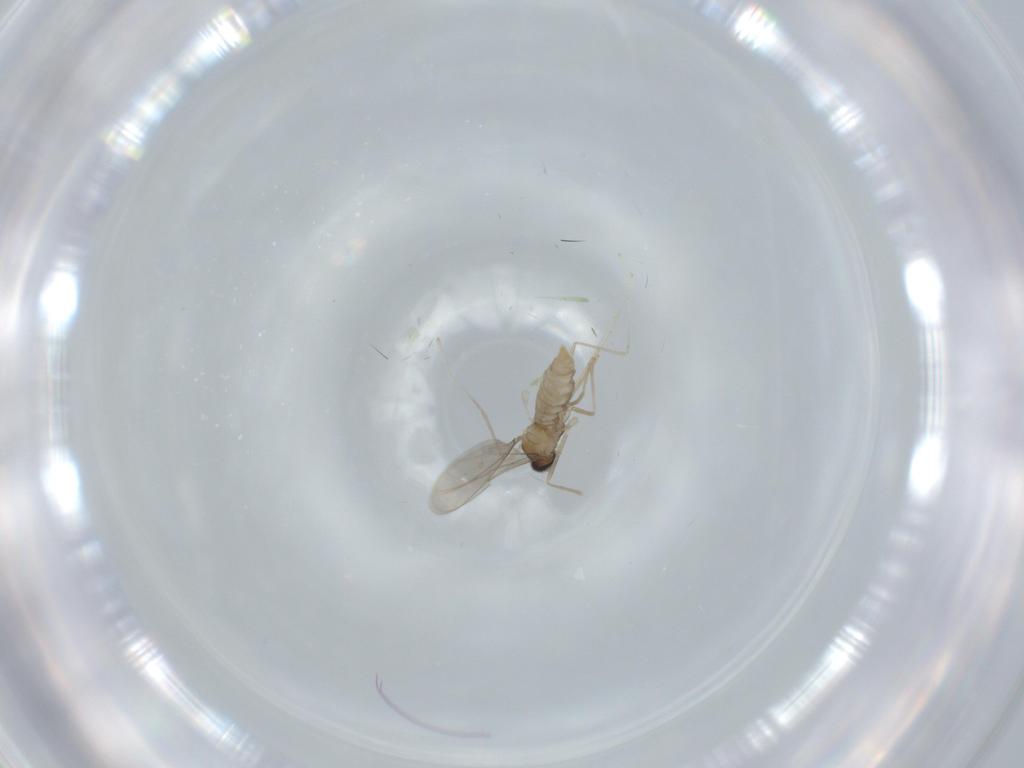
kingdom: Animalia
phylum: Arthropoda
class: Insecta
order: Diptera
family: Cecidomyiidae
